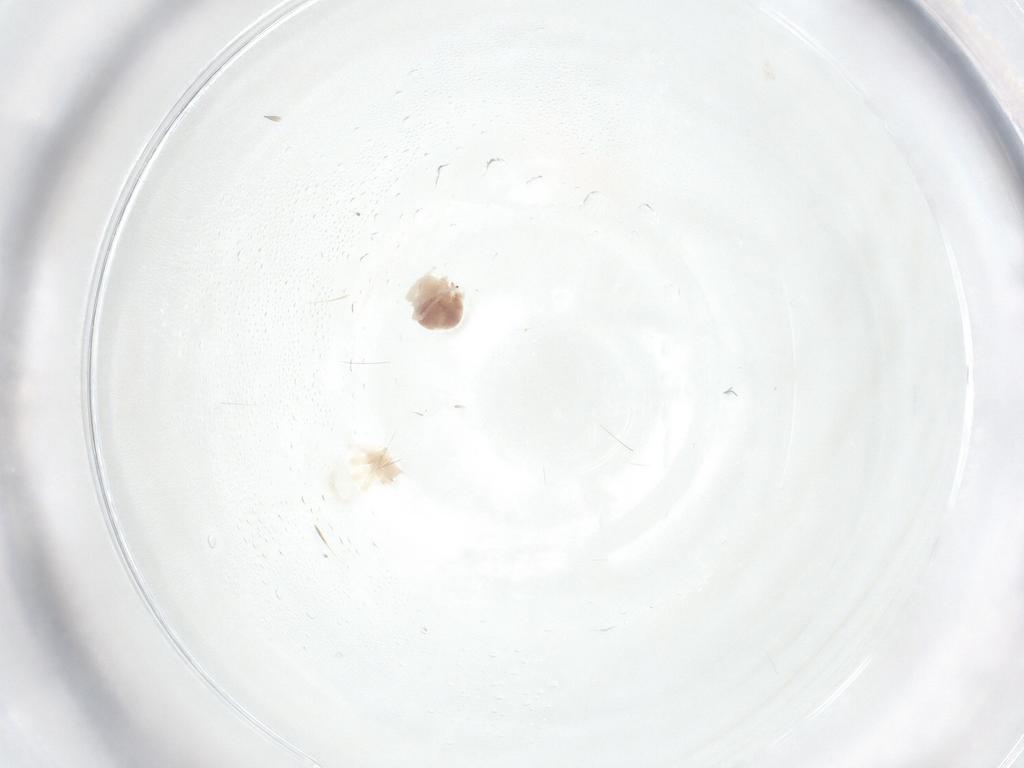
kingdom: Animalia
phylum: Arthropoda
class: Arachnida
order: Trombidiformes
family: Anystidae
